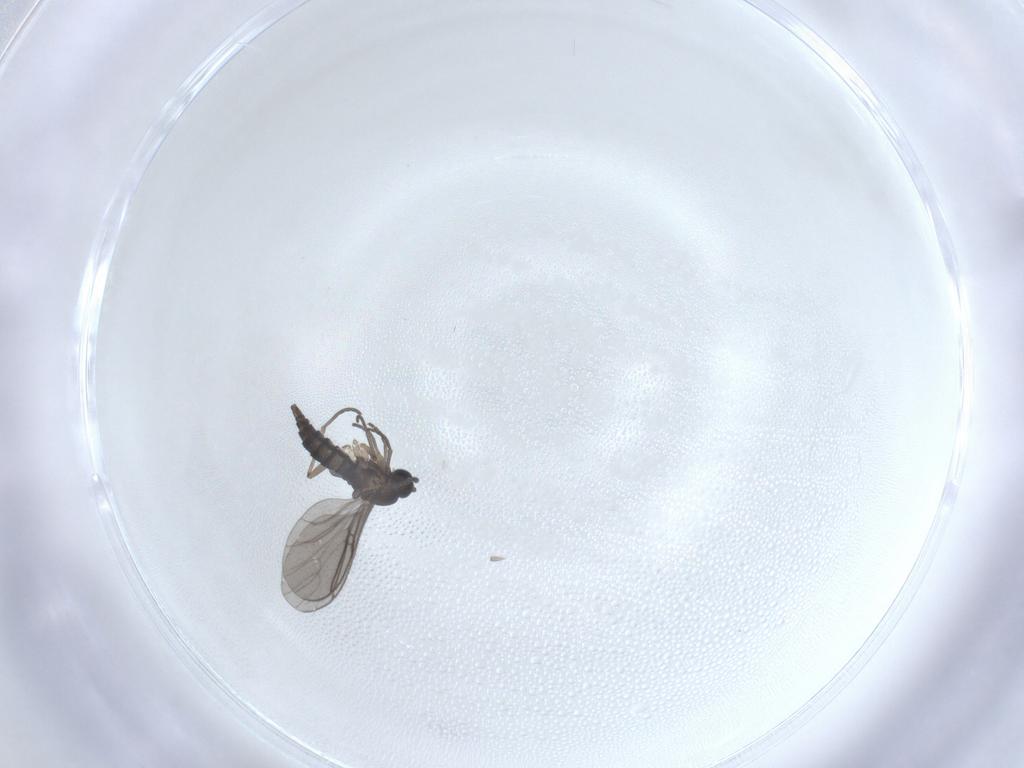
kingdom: Animalia
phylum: Arthropoda
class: Insecta
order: Diptera
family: Sciaridae
